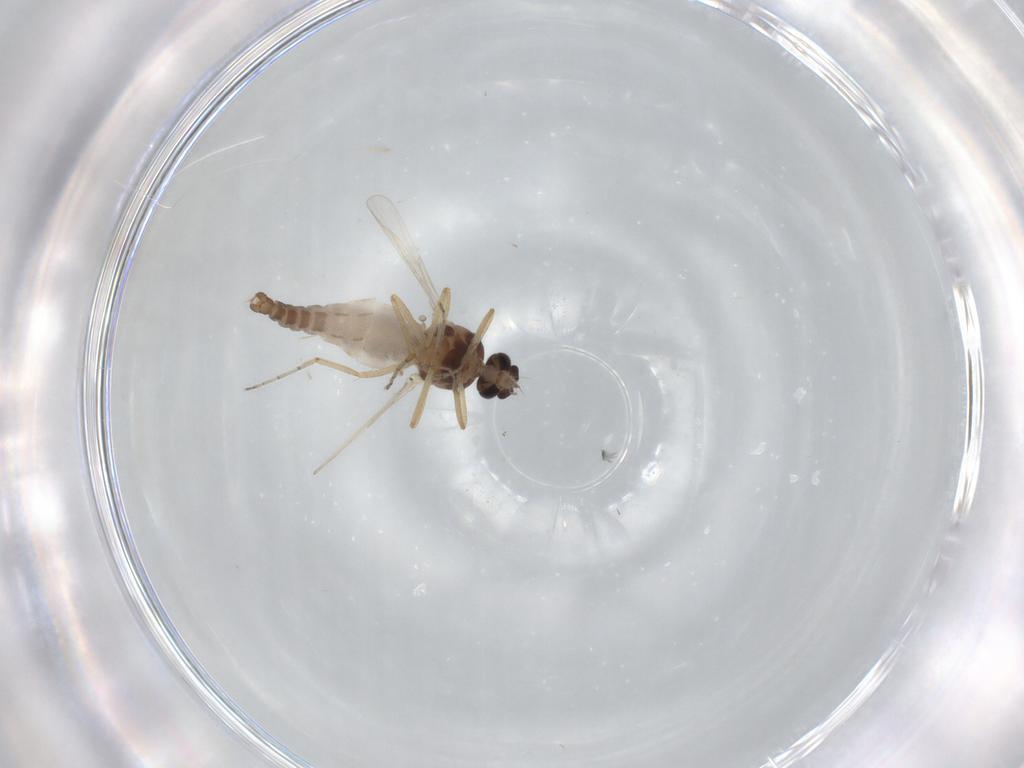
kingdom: Animalia
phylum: Arthropoda
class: Insecta
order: Diptera
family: Ceratopogonidae
